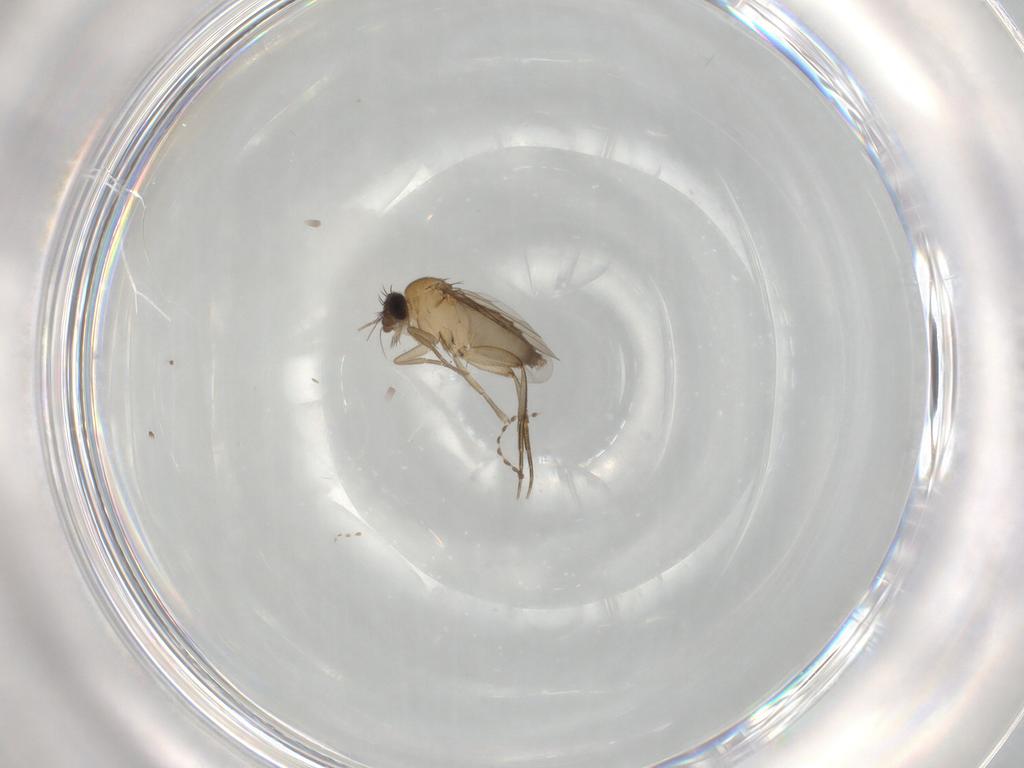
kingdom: Animalia
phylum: Arthropoda
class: Insecta
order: Diptera
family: Phoridae
